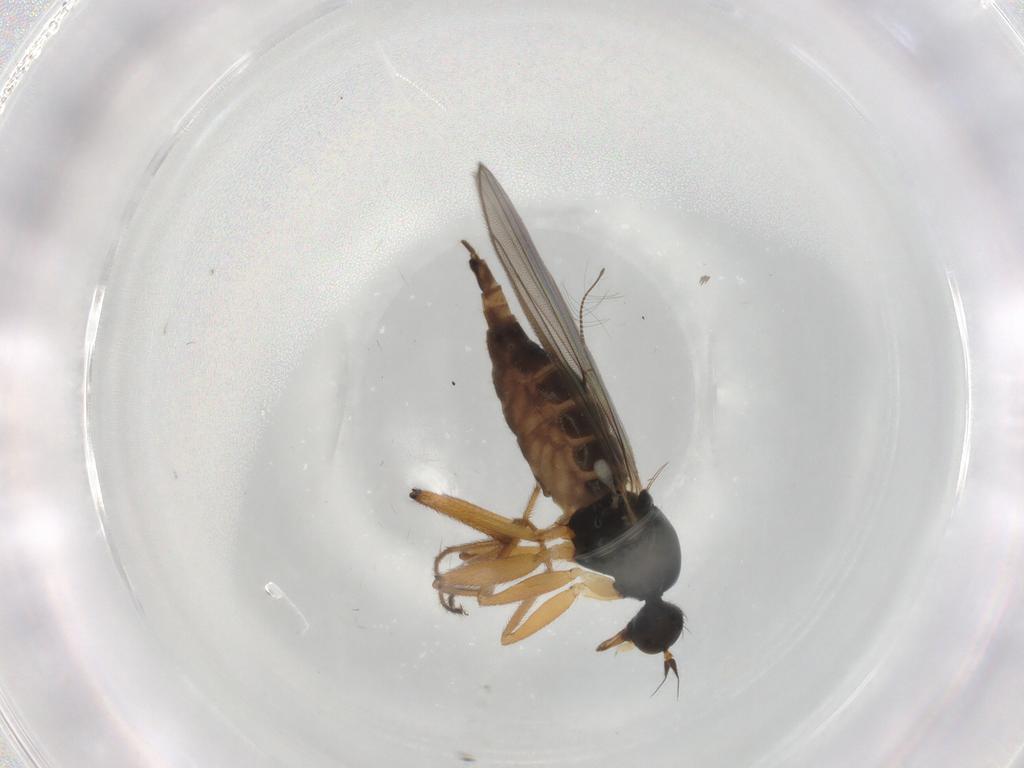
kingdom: Animalia
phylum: Arthropoda
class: Insecta
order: Diptera
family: Hybotidae
